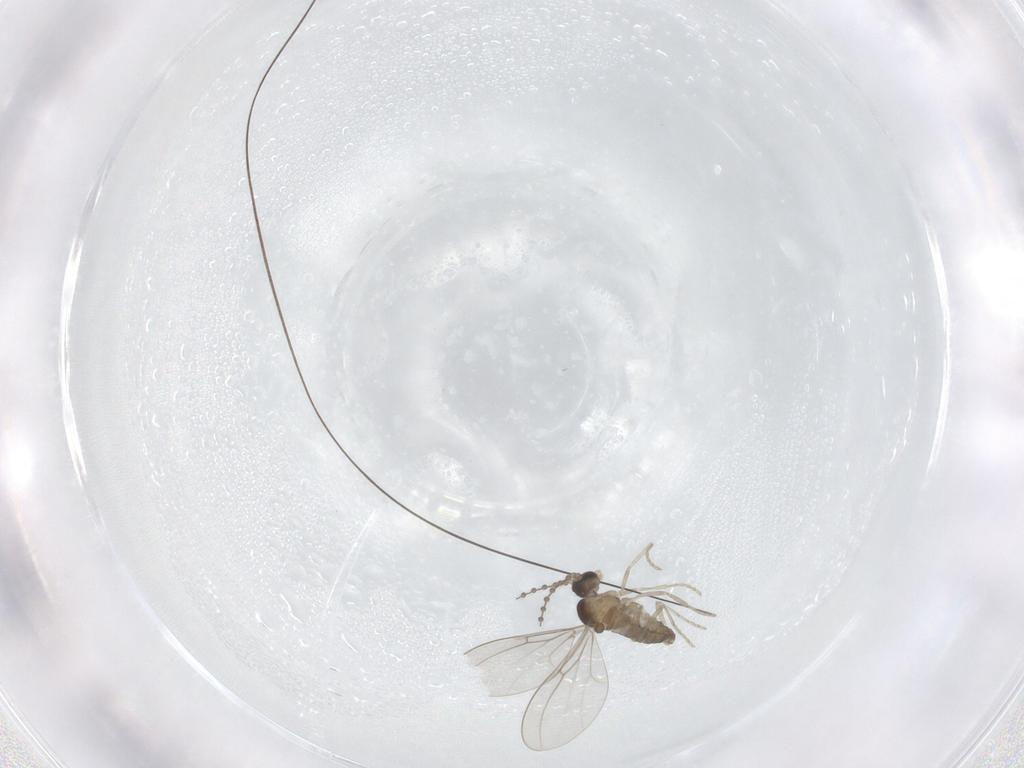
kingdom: Animalia
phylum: Arthropoda
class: Insecta
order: Diptera
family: Cecidomyiidae
